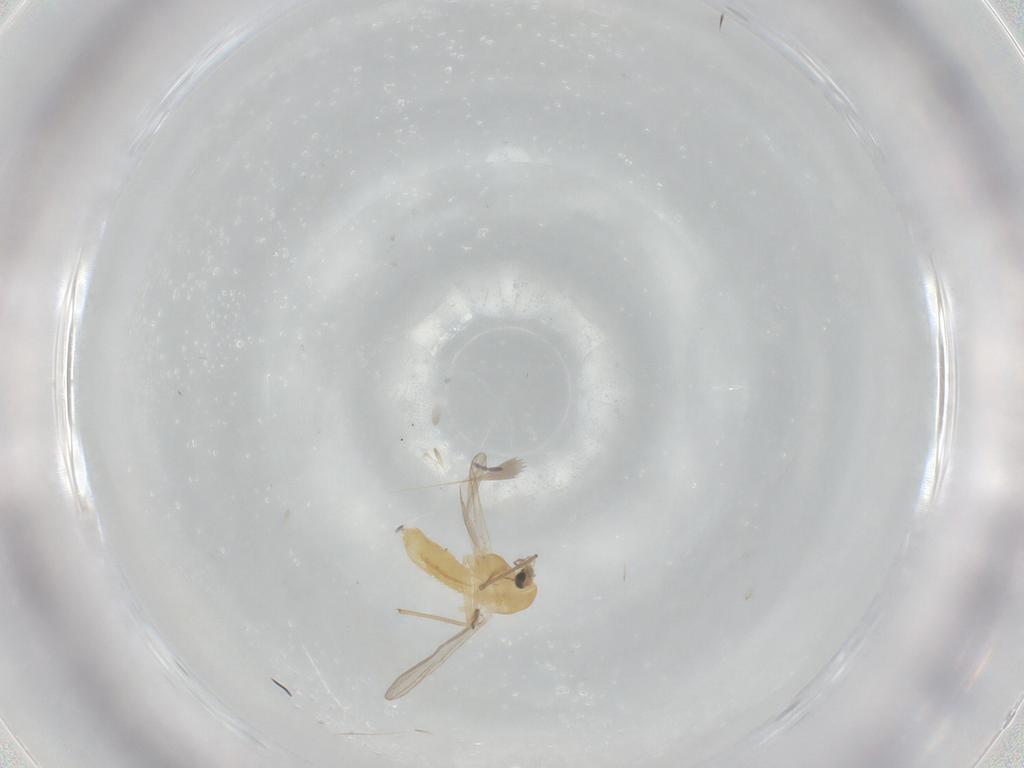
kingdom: Animalia
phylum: Arthropoda
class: Insecta
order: Diptera
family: Chironomidae
